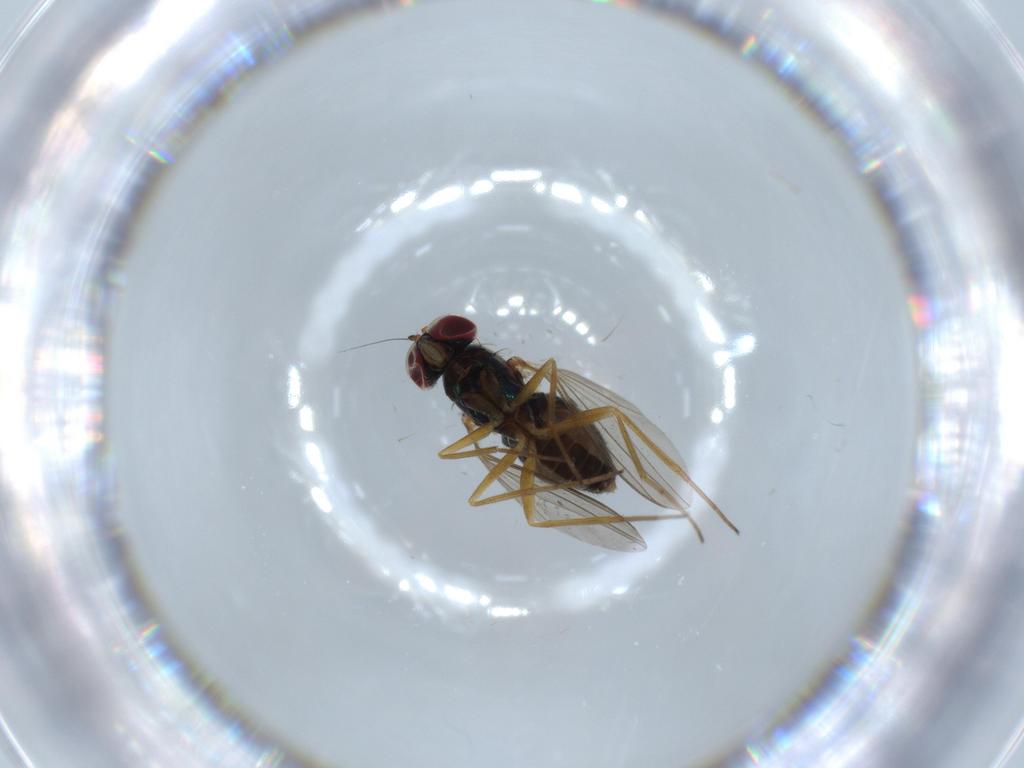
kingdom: Animalia
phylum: Arthropoda
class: Insecta
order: Diptera
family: Dolichopodidae
